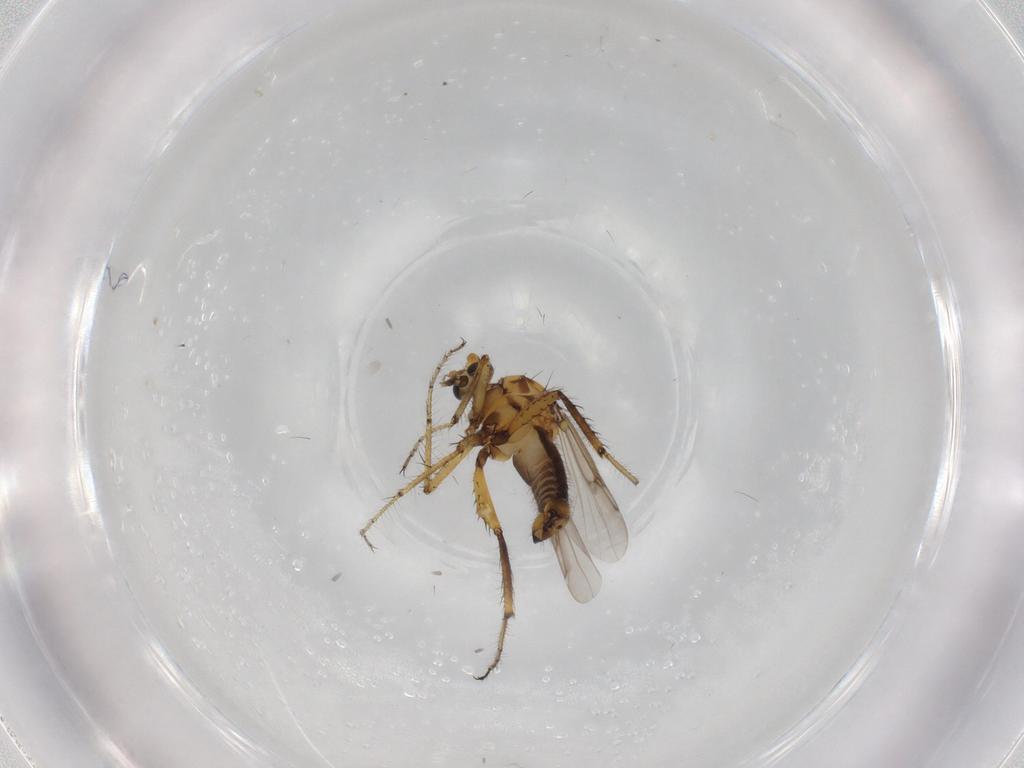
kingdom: Animalia
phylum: Arthropoda
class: Insecta
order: Diptera
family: Ceratopogonidae
